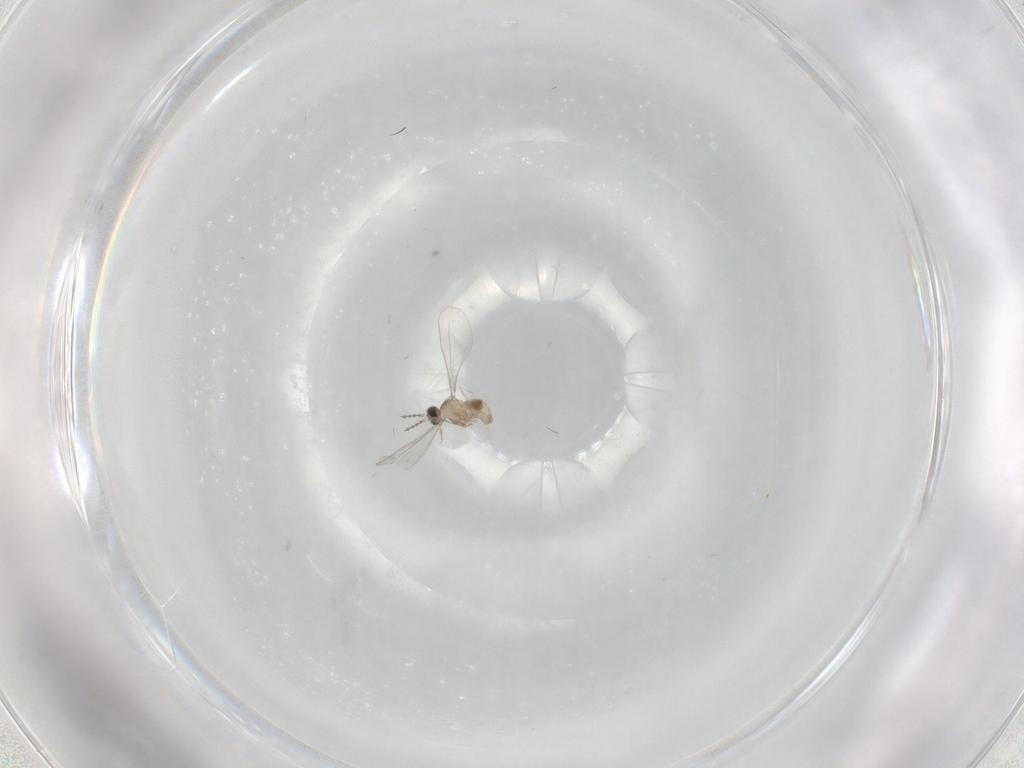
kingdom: Animalia
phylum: Arthropoda
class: Insecta
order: Diptera
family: Cecidomyiidae
